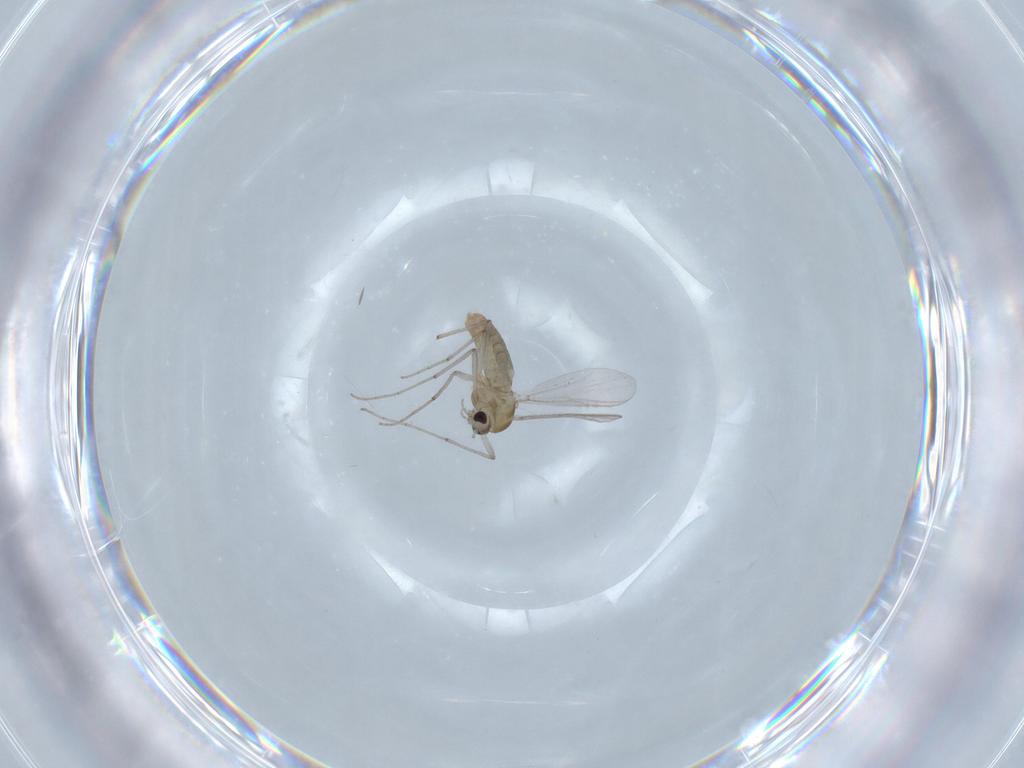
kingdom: Animalia
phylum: Arthropoda
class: Insecta
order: Diptera
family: Chironomidae
